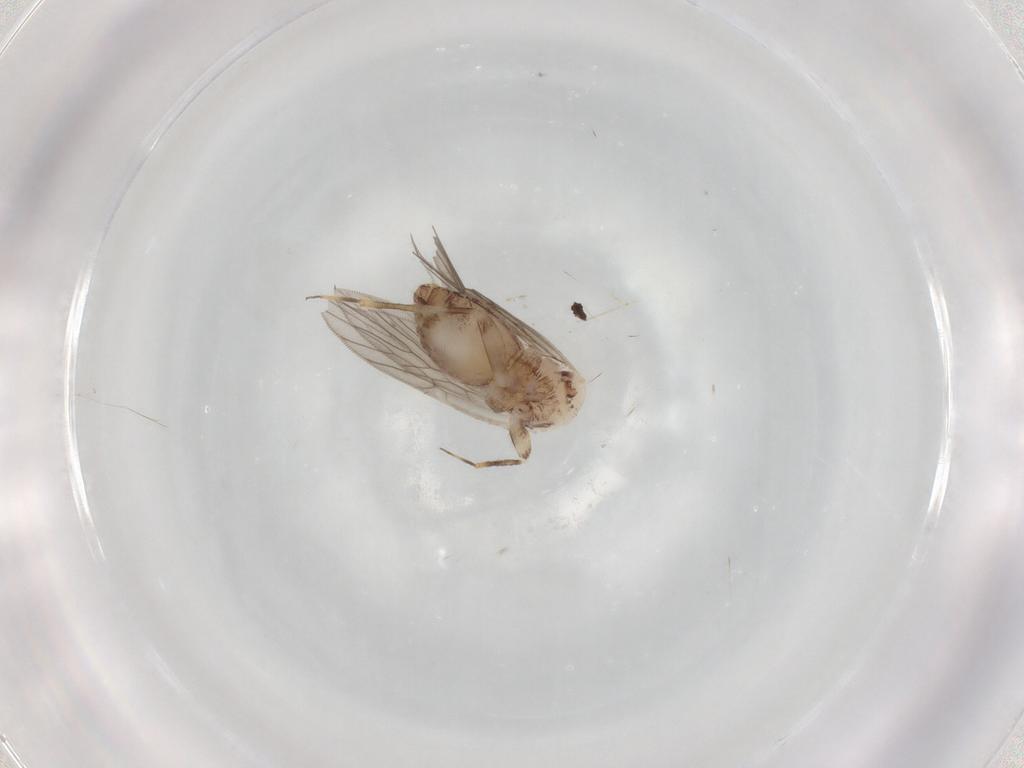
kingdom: Animalia
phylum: Arthropoda
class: Insecta
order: Psocodea
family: Lepidopsocidae
